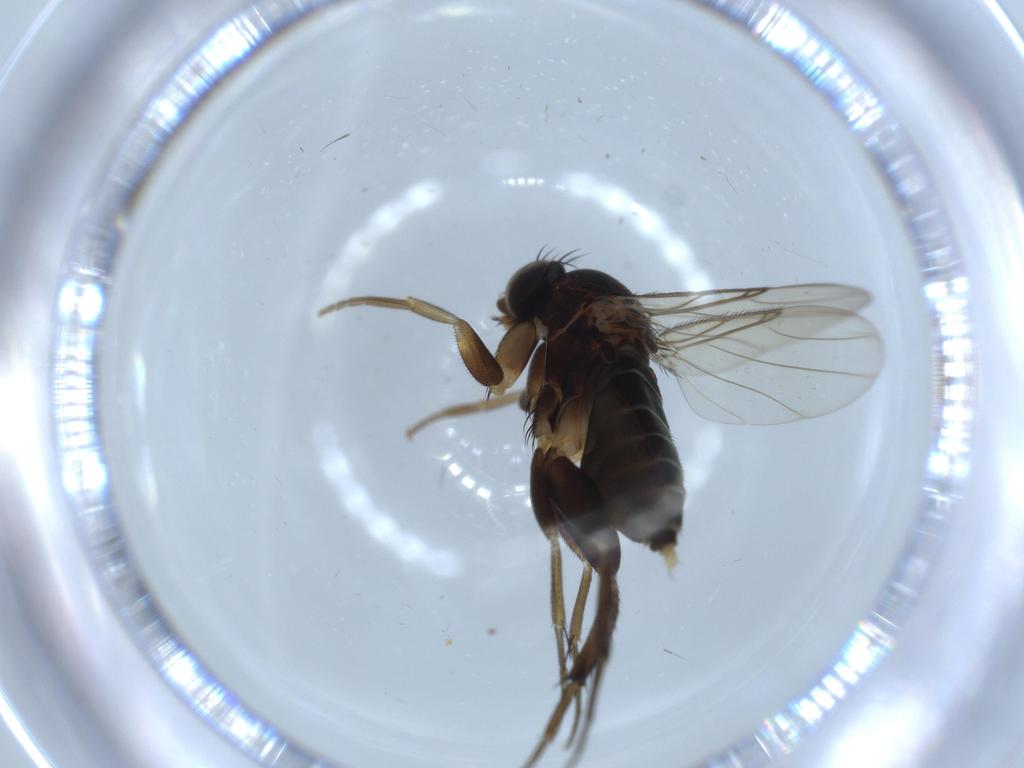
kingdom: Animalia
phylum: Arthropoda
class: Insecta
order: Diptera
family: Phoridae
